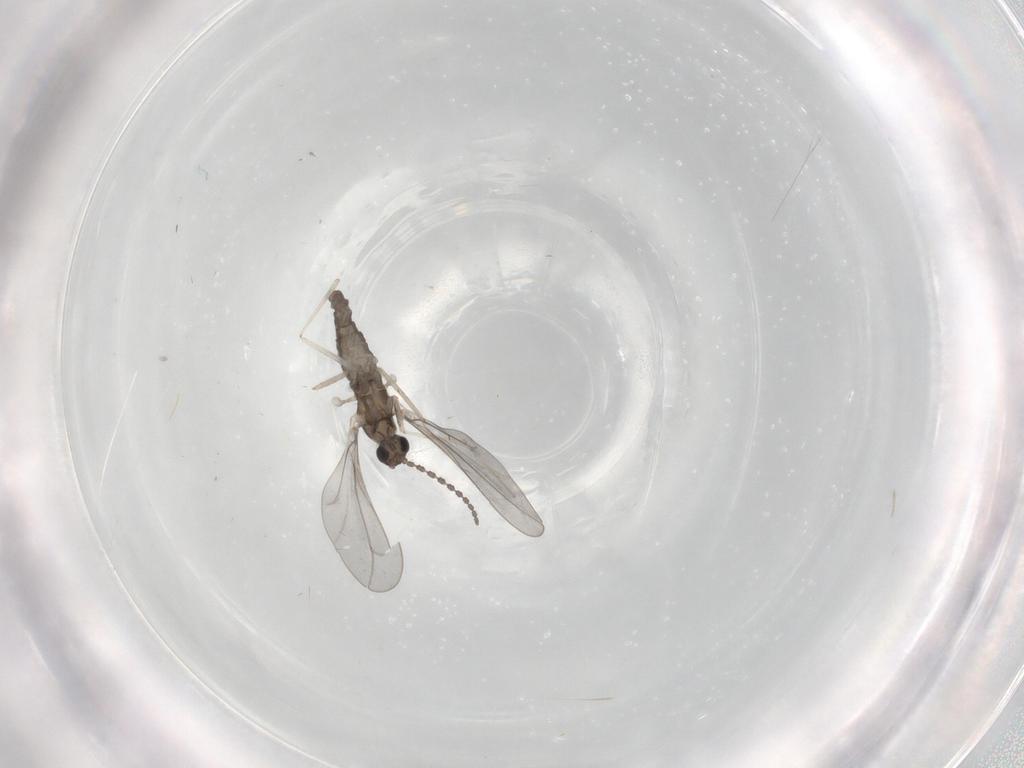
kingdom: Animalia
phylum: Arthropoda
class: Insecta
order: Diptera
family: Cecidomyiidae
